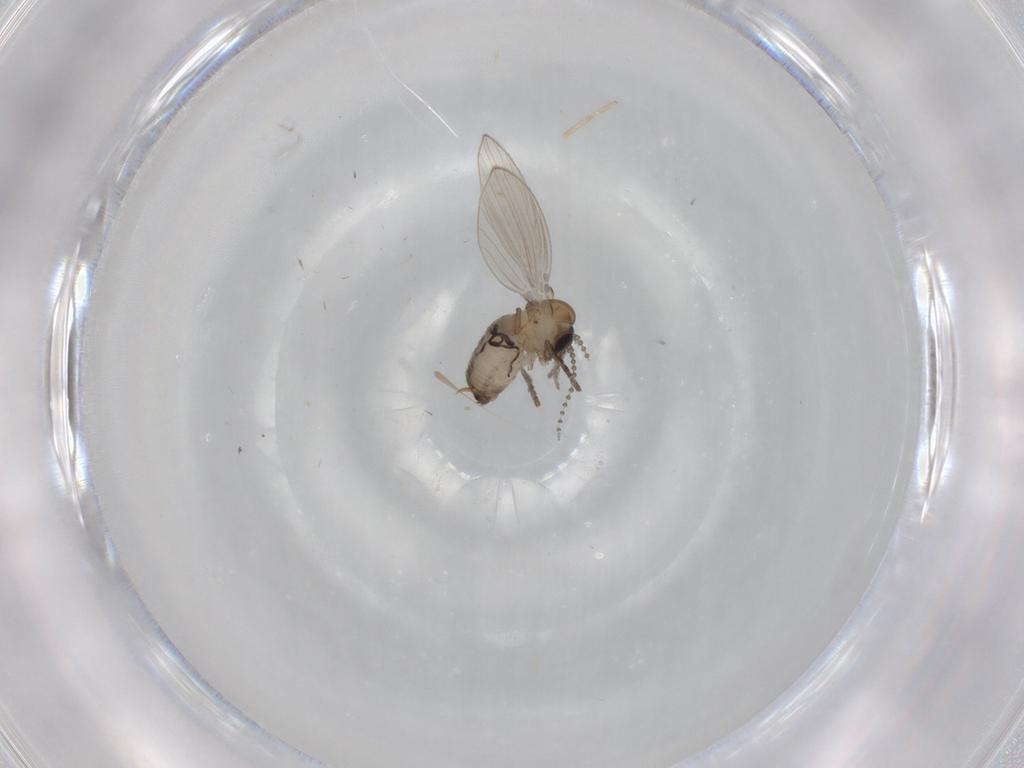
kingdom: Animalia
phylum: Arthropoda
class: Insecta
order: Diptera
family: Psychodidae
